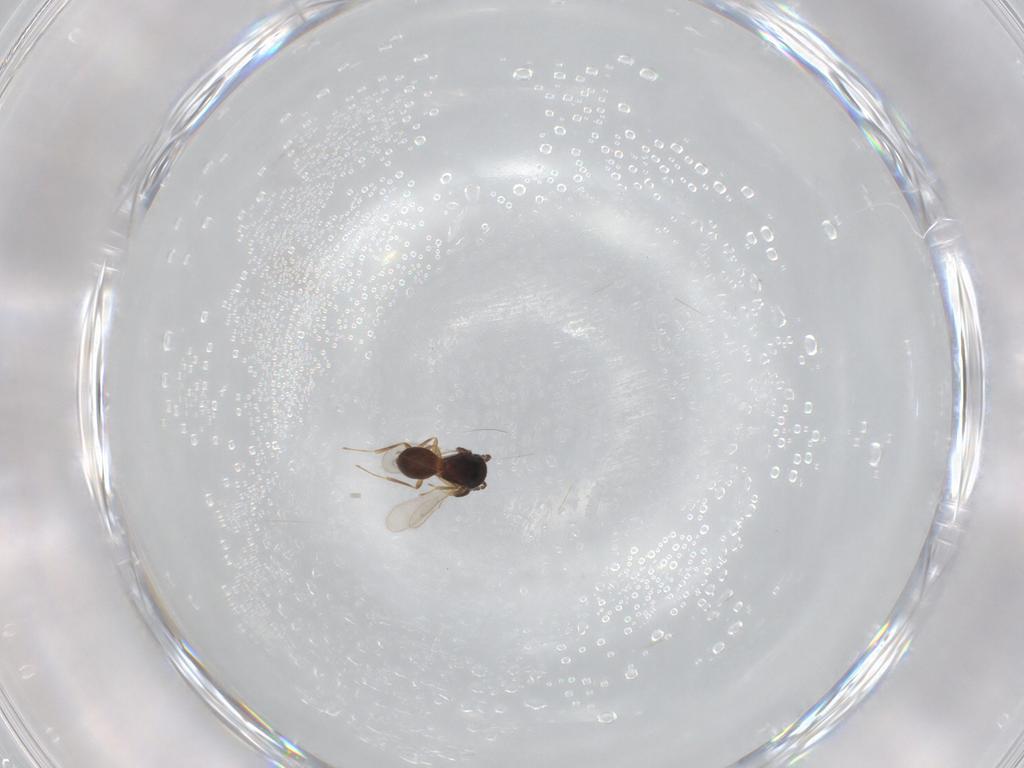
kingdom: Animalia
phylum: Arthropoda
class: Insecta
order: Hymenoptera
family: Scelionidae
